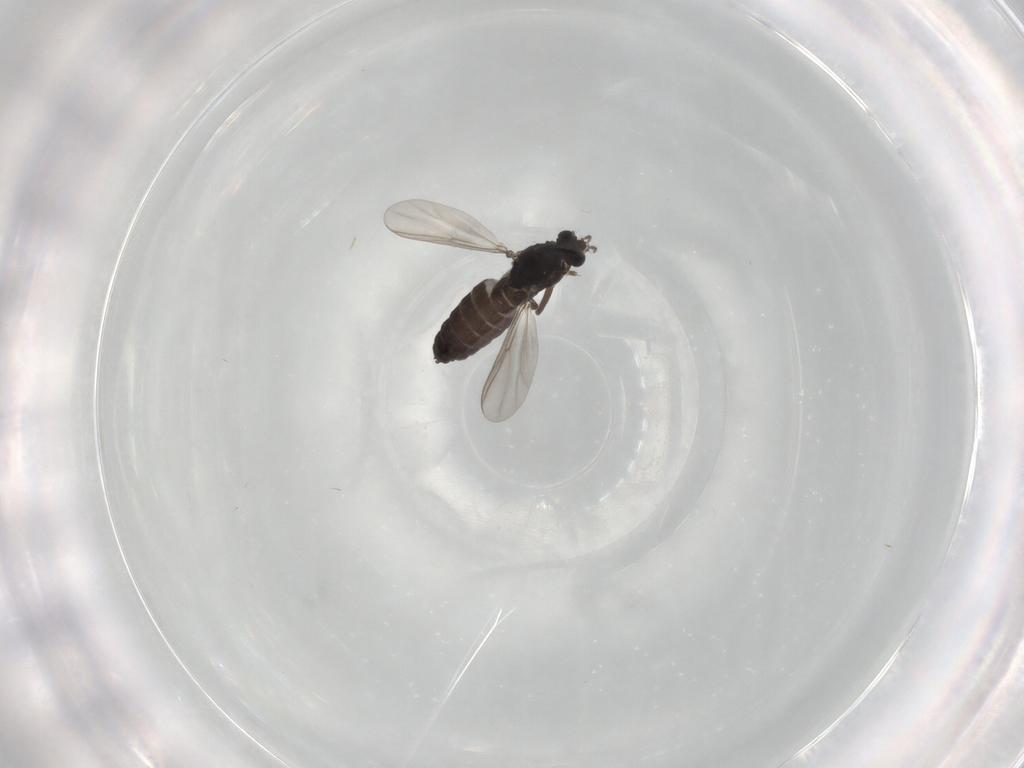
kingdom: Animalia
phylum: Arthropoda
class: Insecta
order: Diptera
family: Chironomidae
